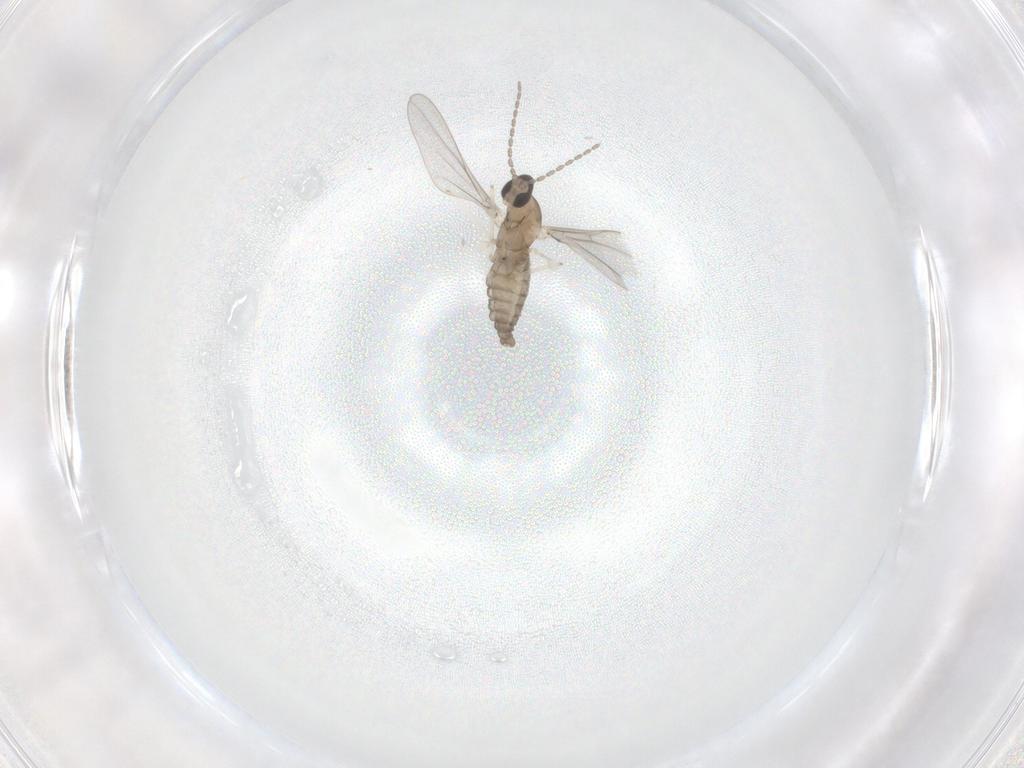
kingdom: Animalia
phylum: Arthropoda
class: Insecta
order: Diptera
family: Cecidomyiidae
